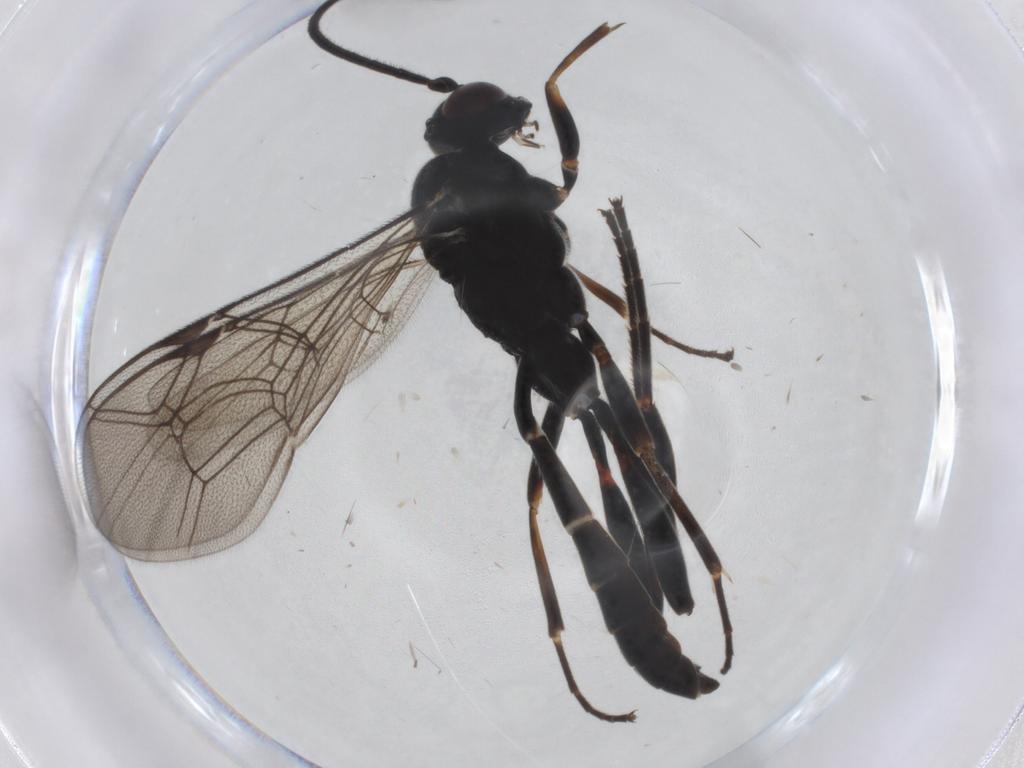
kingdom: Animalia
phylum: Arthropoda
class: Insecta
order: Hymenoptera
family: Ichneumonidae
